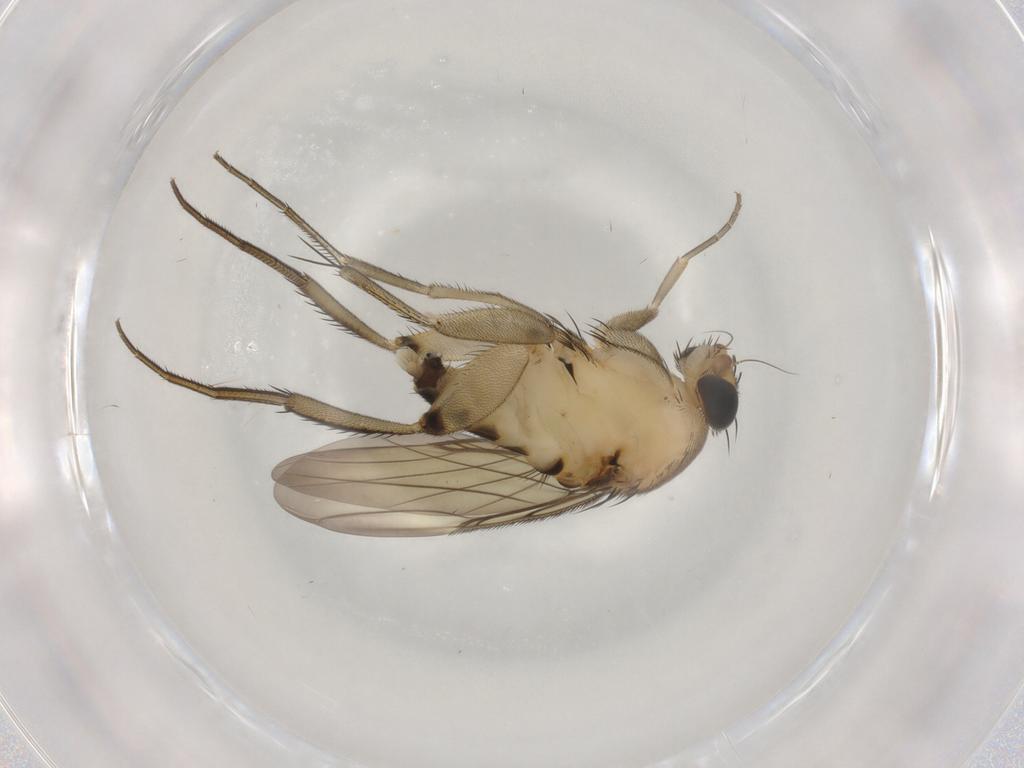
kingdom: Animalia
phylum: Arthropoda
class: Insecta
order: Diptera
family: Phoridae
